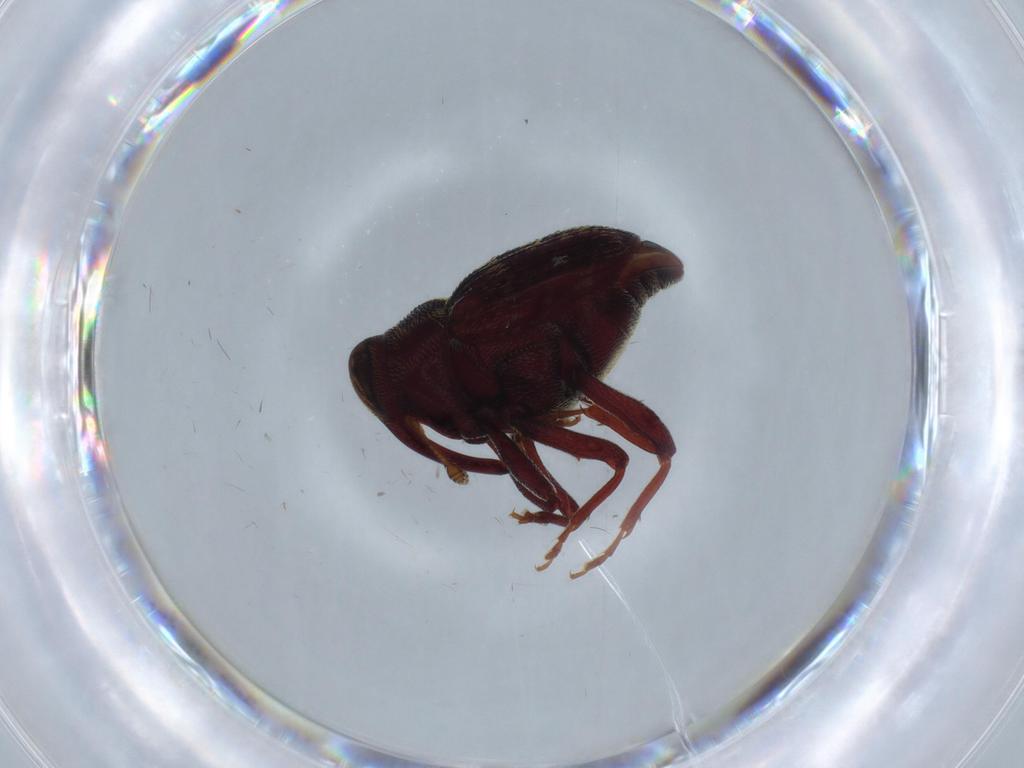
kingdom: Animalia
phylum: Arthropoda
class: Insecta
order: Coleoptera
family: Curculionidae
